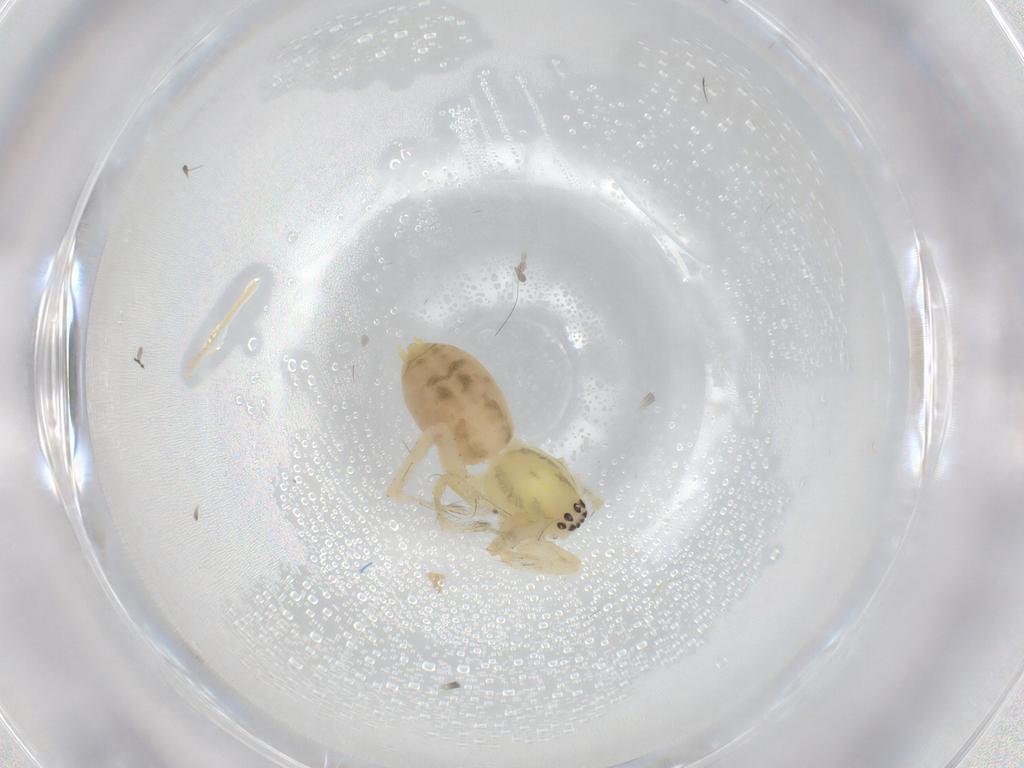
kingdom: Animalia
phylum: Arthropoda
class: Arachnida
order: Araneae
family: Anyphaenidae
